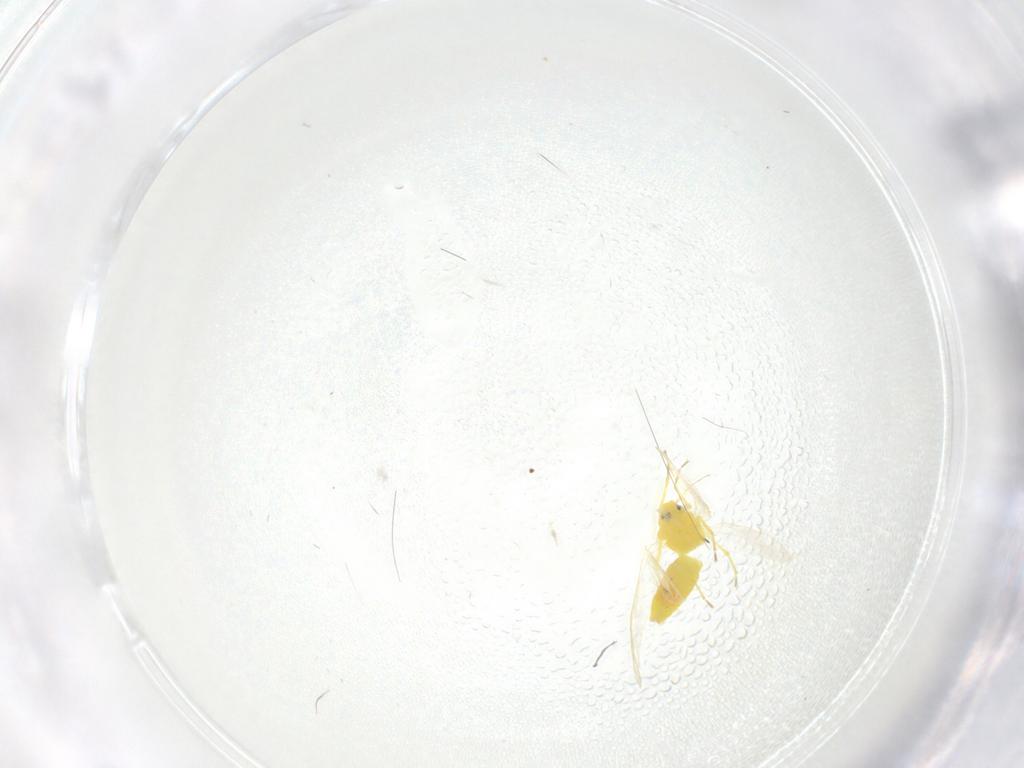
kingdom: Animalia
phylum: Arthropoda
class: Insecta
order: Hemiptera
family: Aleyrodidae
